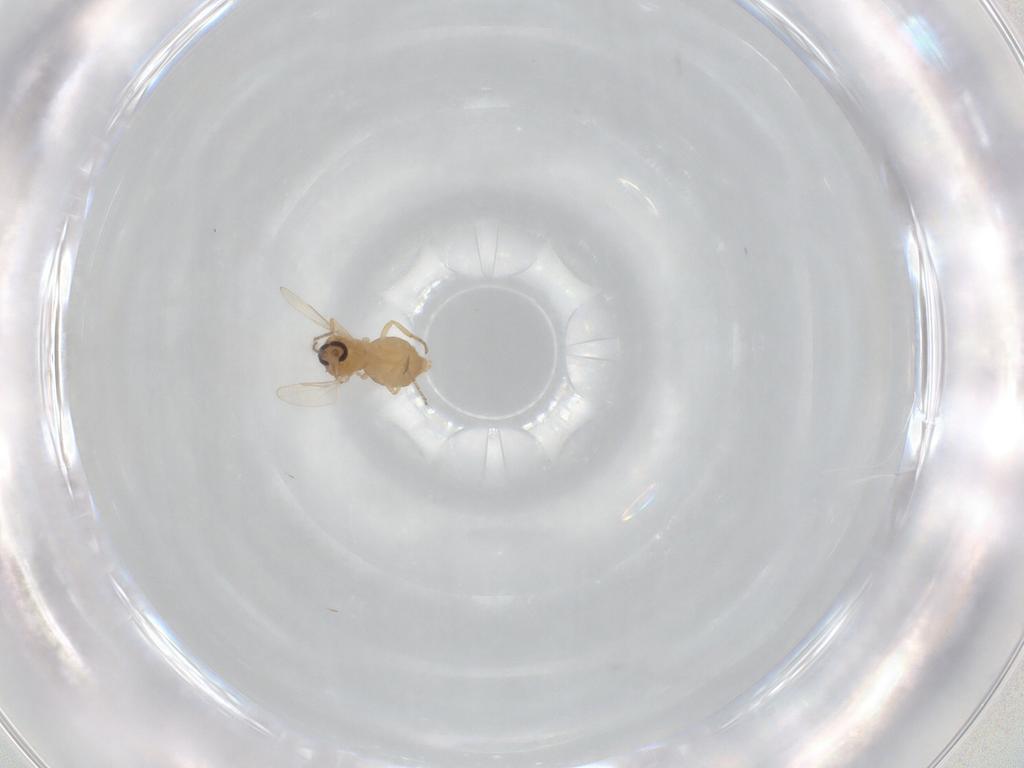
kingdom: Animalia
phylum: Arthropoda
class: Insecta
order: Diptera
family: Ceratopogonidae
